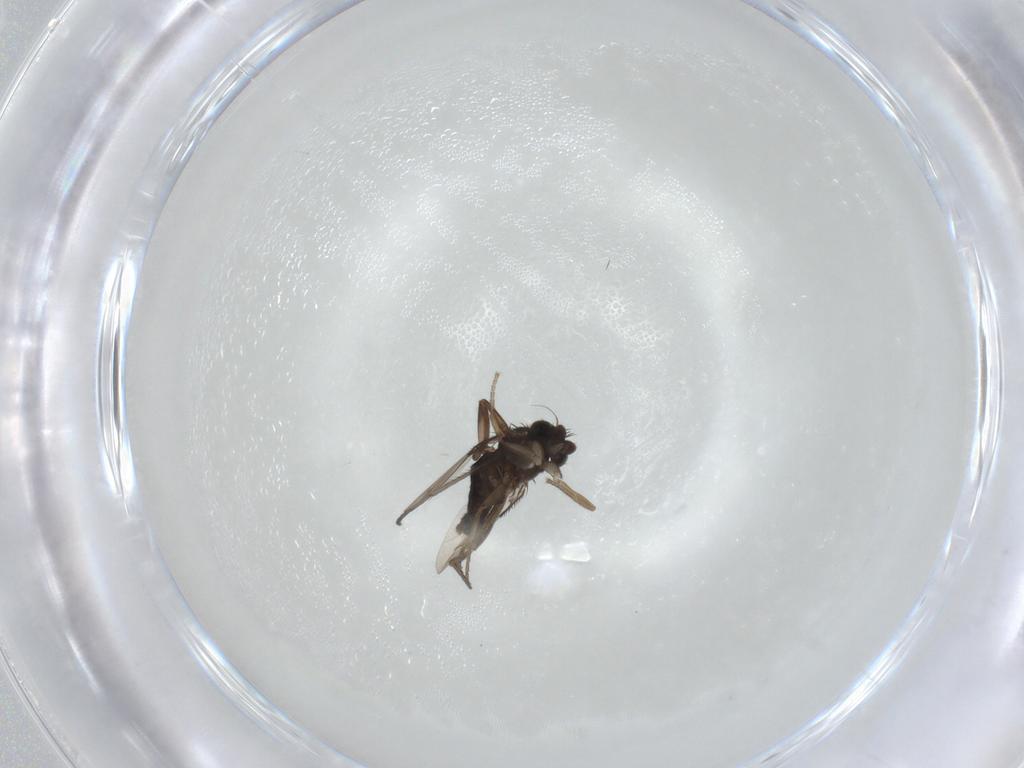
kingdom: Animalia
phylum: Arthropoda
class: Insecta
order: Diptera
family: Phoridae
